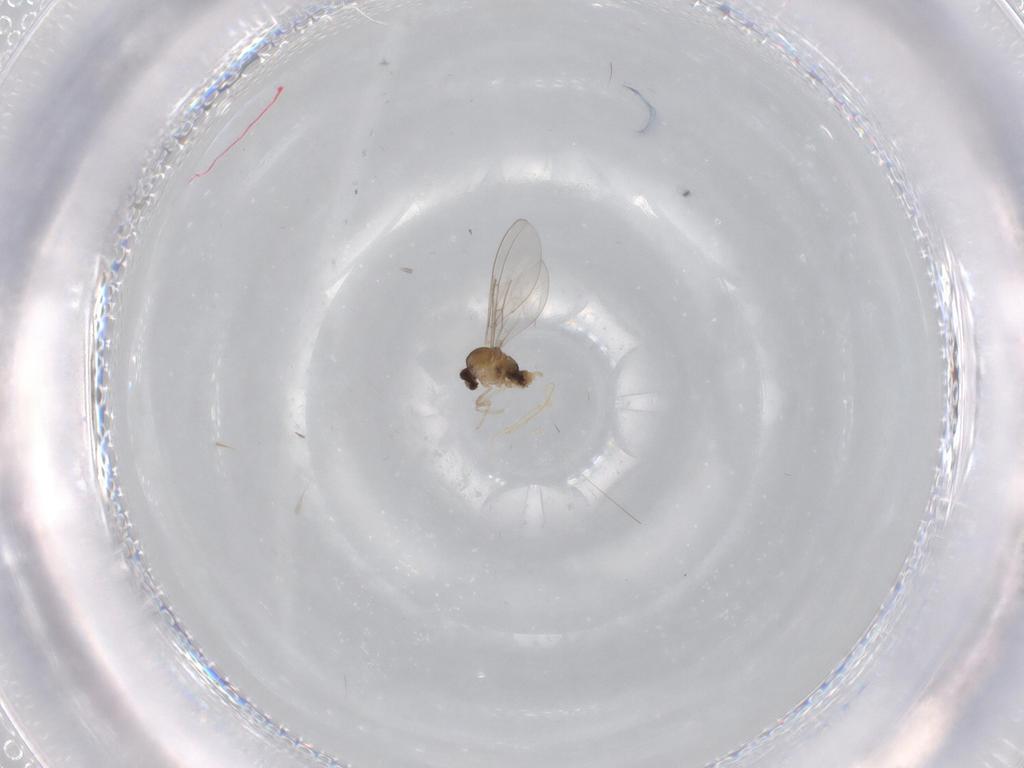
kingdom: Animalia
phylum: Arthropoda
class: Insecta
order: Diptera
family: Cecidomyiidae
